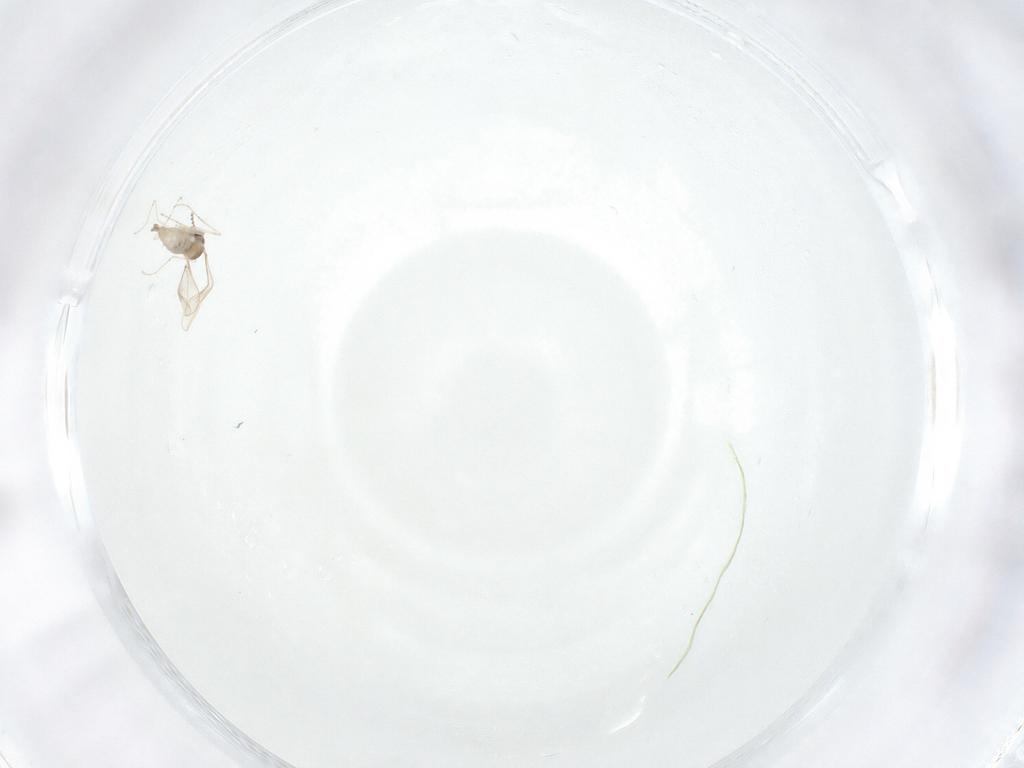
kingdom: Animalia
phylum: Arthropoda
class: Insecta
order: Diptera
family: Cecidomyiidae
